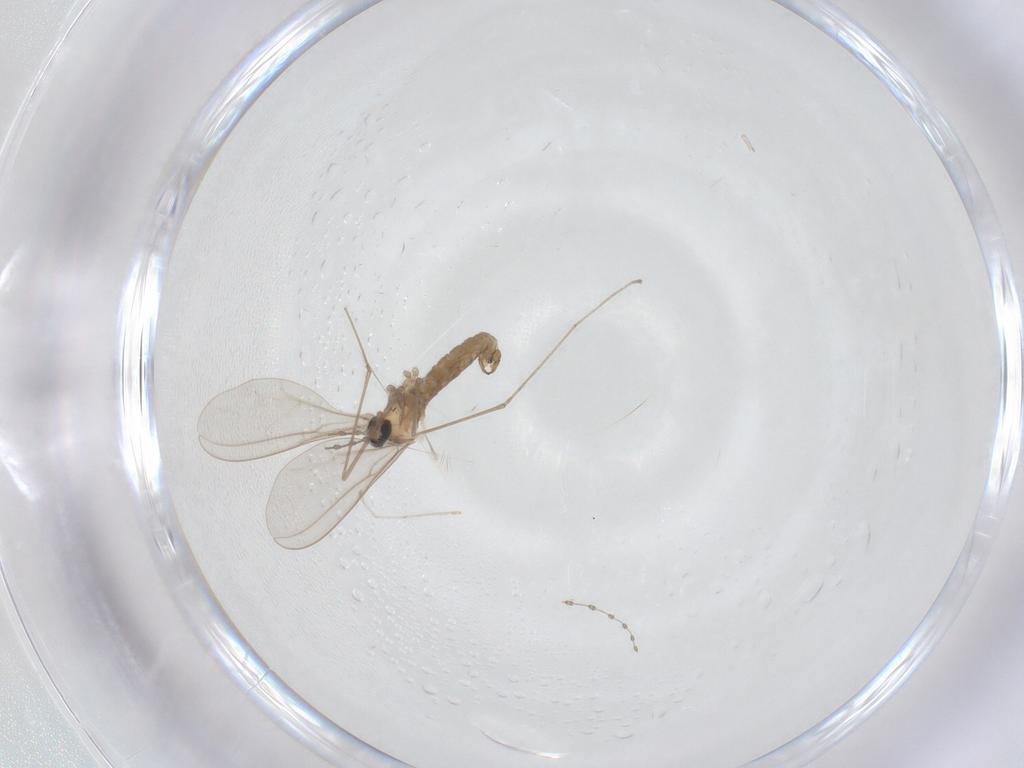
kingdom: Animalia
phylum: Arthropoda
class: Insecta
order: Diptera
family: Cecidomyiidae
